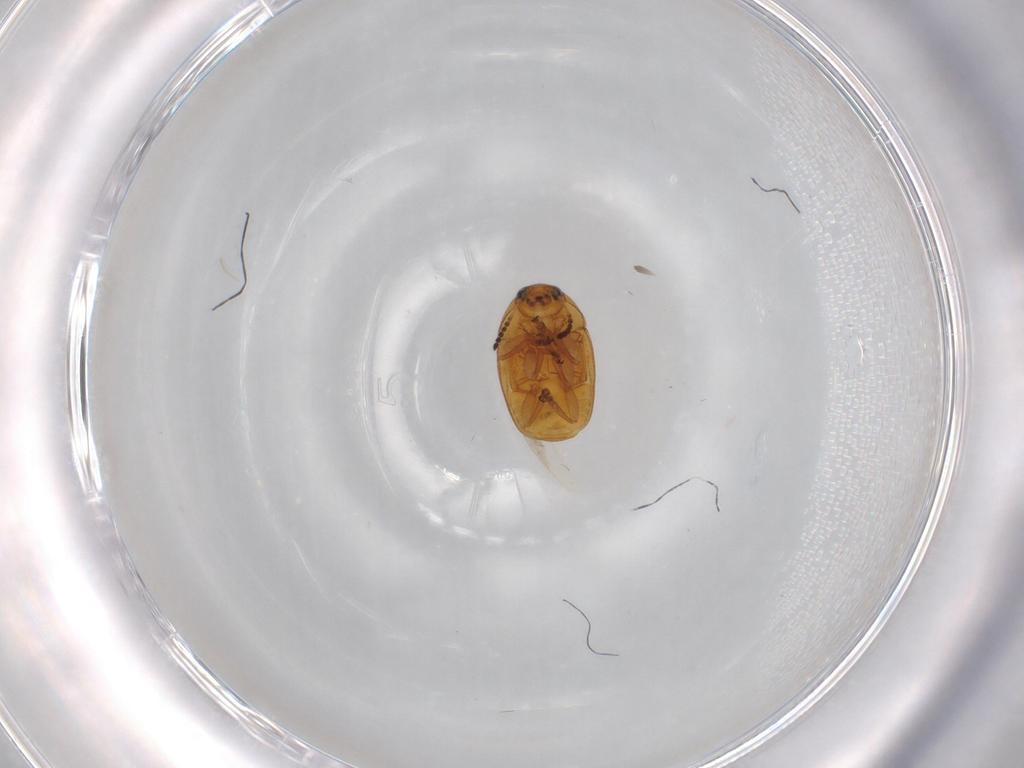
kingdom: Animalia
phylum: Arthropoda
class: Insecta
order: Coleoptera
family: Chrysomelidae
